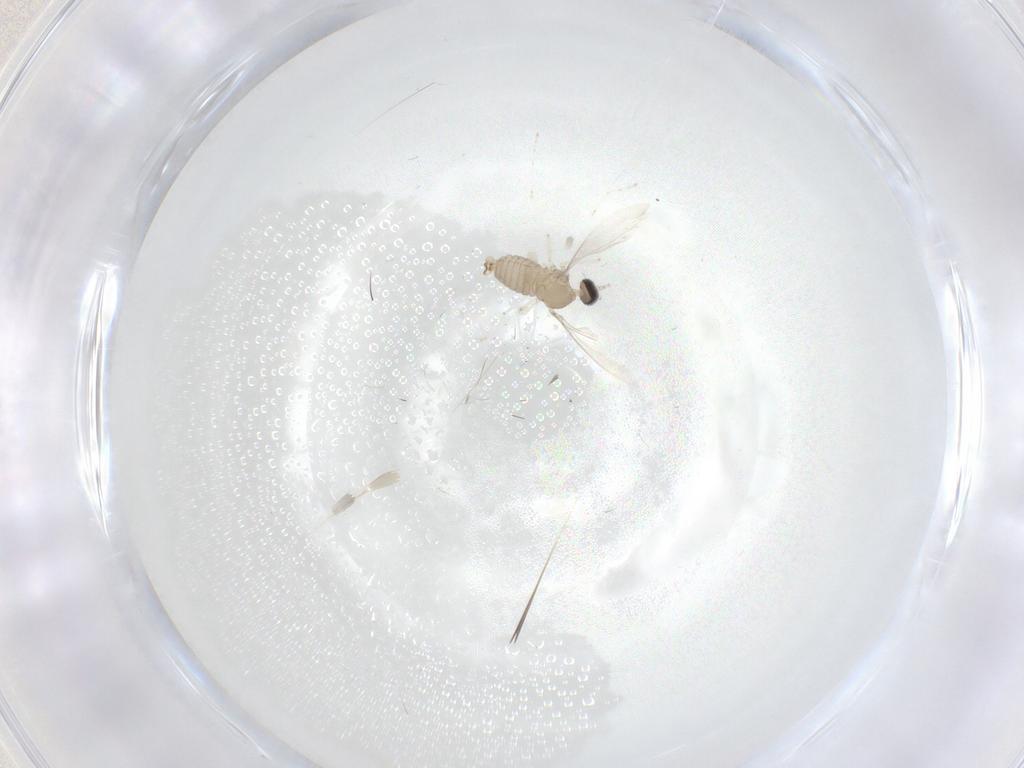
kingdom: Animalia
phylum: Arthropoda
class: Insecta
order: Diptera
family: Cecidomyiidae
